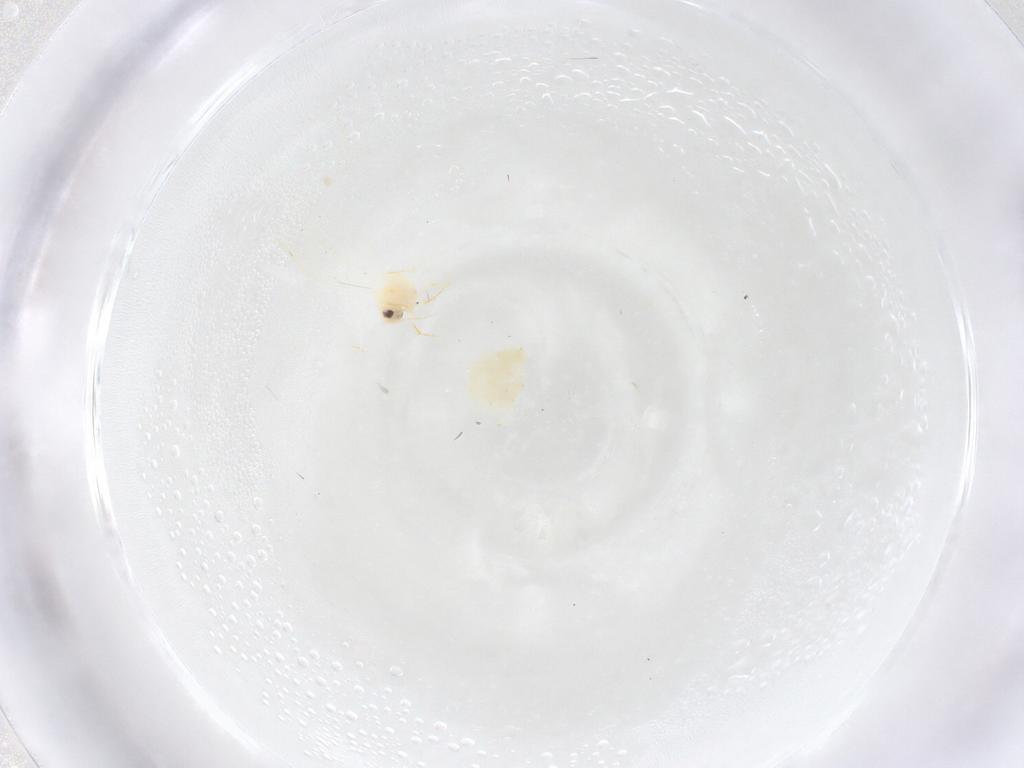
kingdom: Animalia
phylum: Arthropoda
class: Insecta
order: Hemiptera
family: Aleyrodidae
